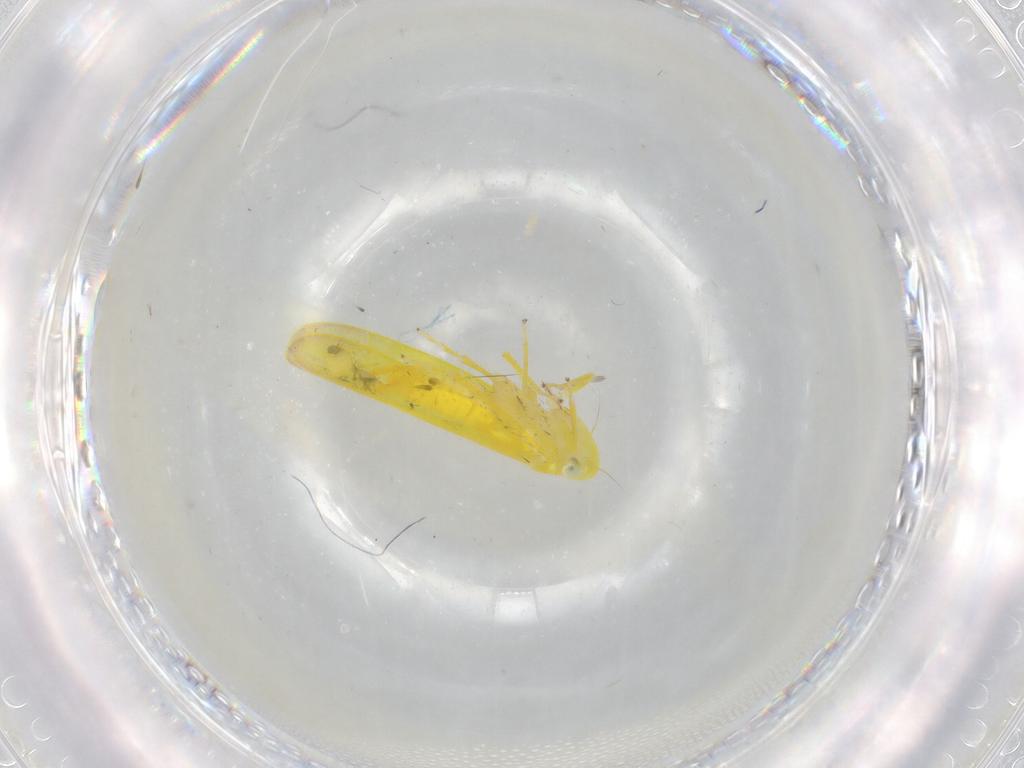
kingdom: Animalia
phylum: Arthropoda
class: Insecta
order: Hemiptera
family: Cicadellidae
